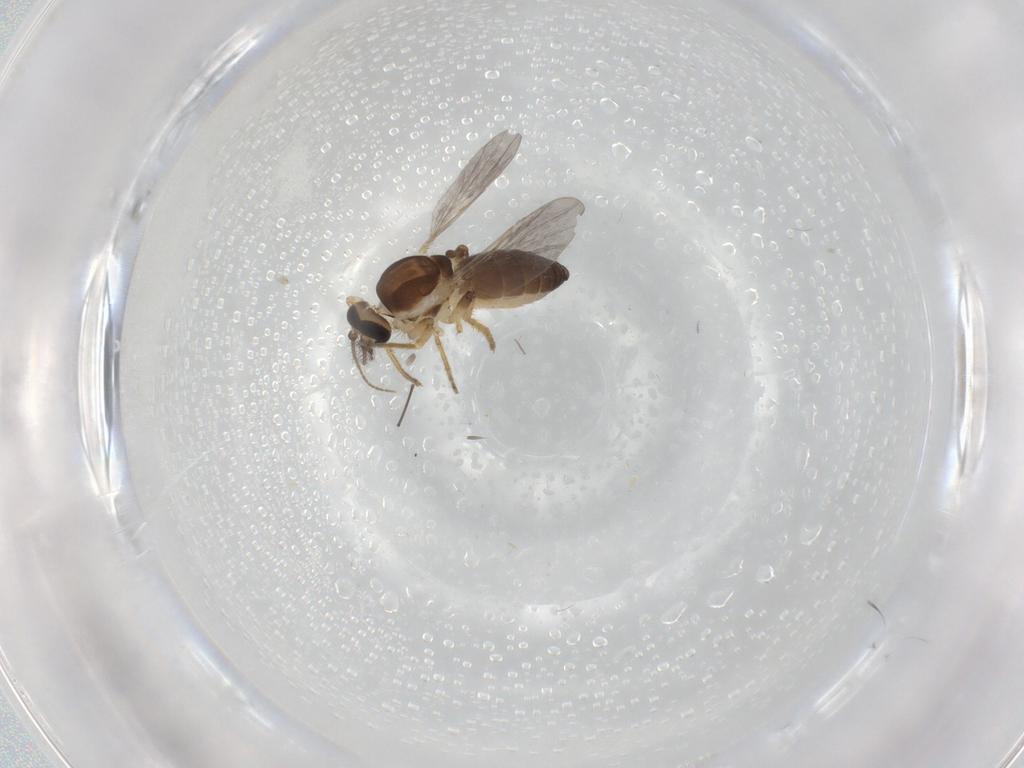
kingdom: Animalia
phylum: Arthropoda
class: Insecta
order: Diptera
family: Ceratopogonidae
